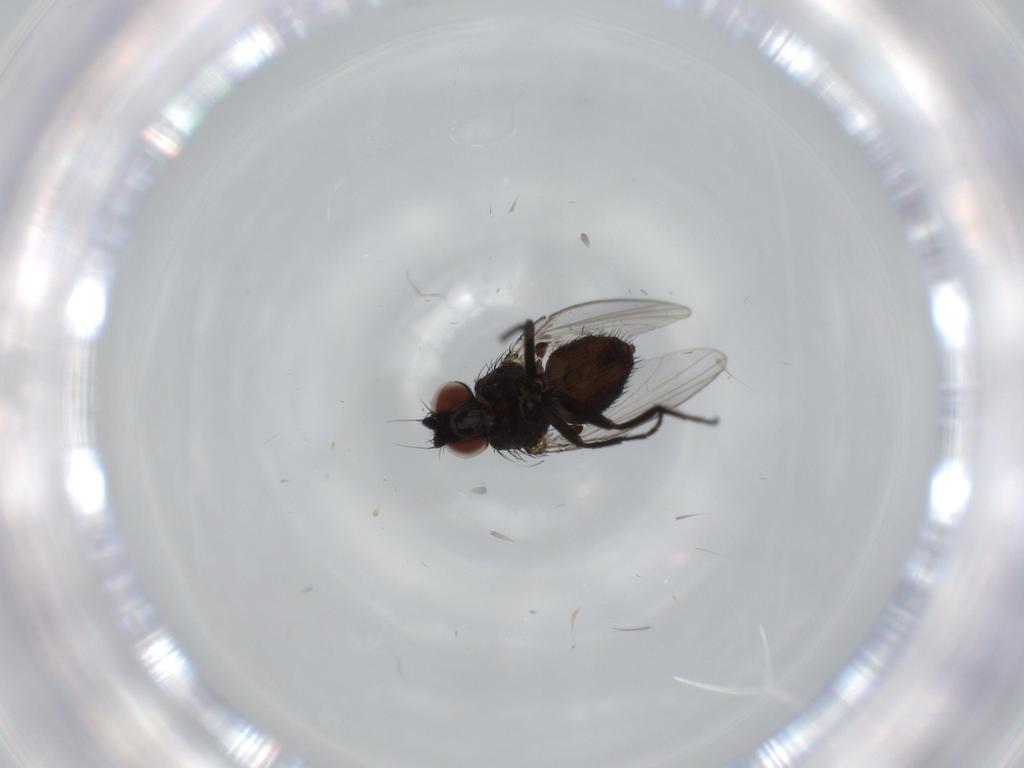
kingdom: Animalia
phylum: Arthropoda
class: Insecta
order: Diptera
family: Milichiidae
